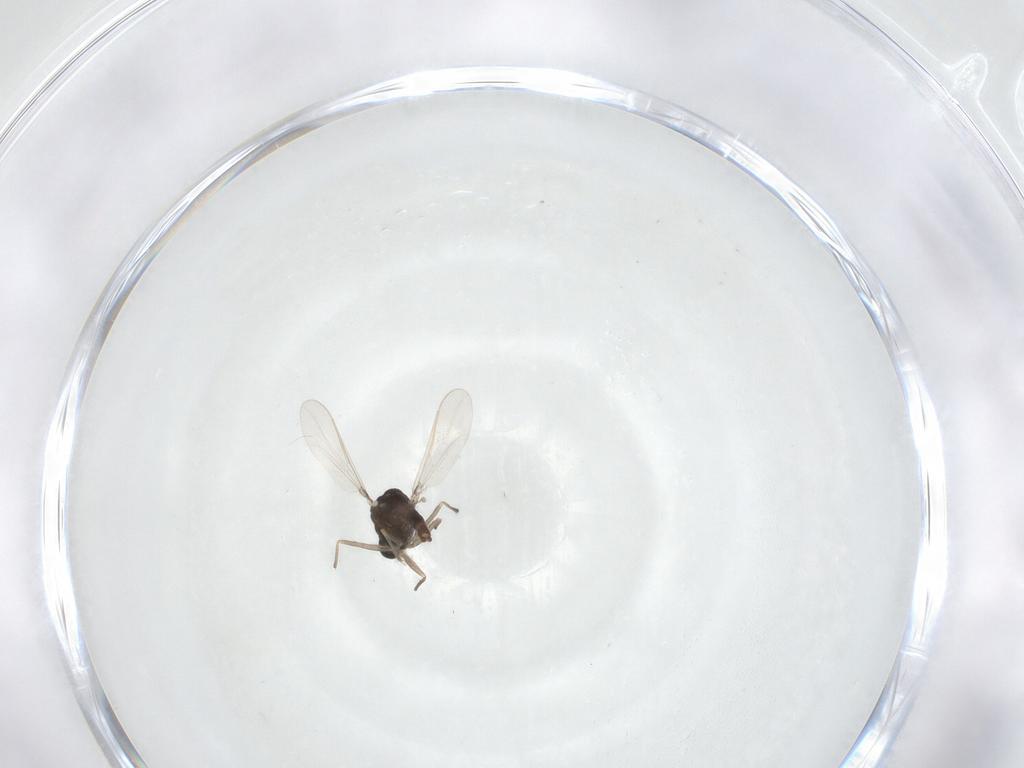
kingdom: Animalia
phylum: Arthropoda
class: Insecta
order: Diptera
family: Chironomidae
